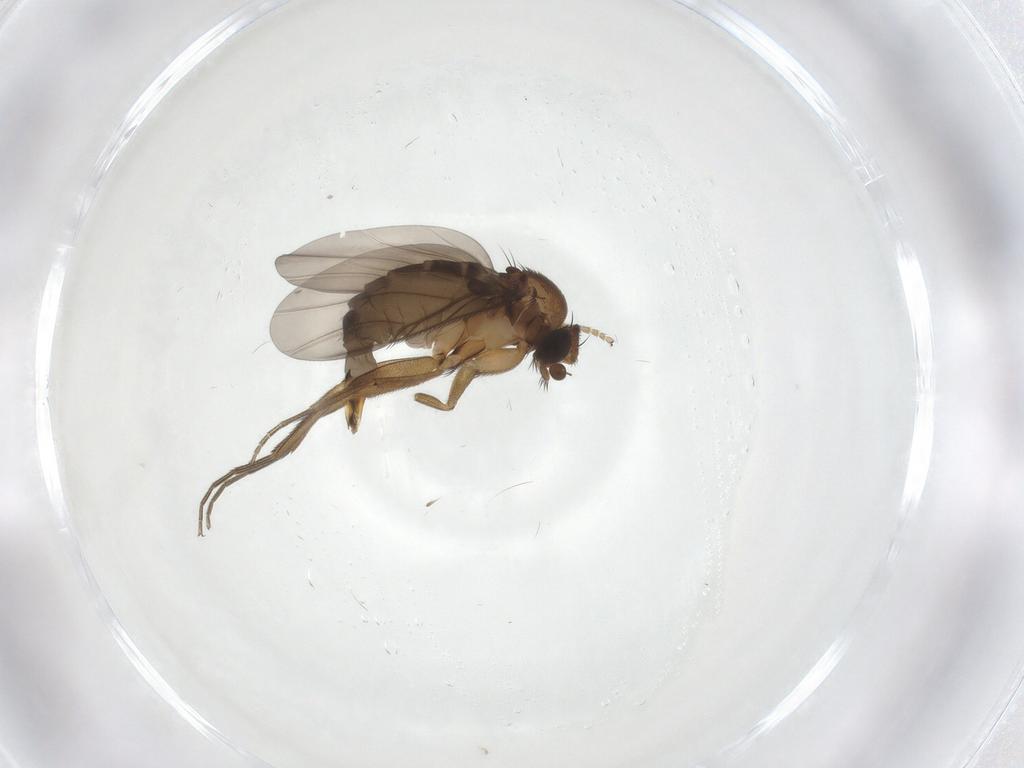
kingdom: Animalia
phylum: Arthropoda
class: Insecta
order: Diptera
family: Phoridae
